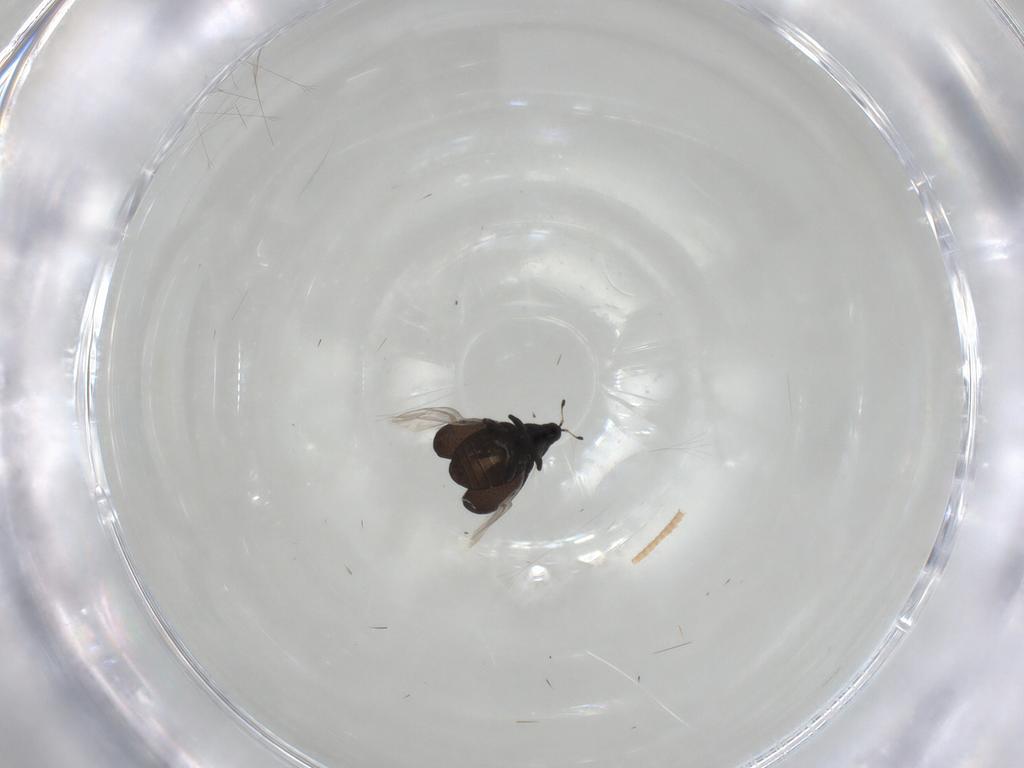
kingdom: Animalia
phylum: Arthropoda
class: Insecta
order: Coleoptera
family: Curculionidae
